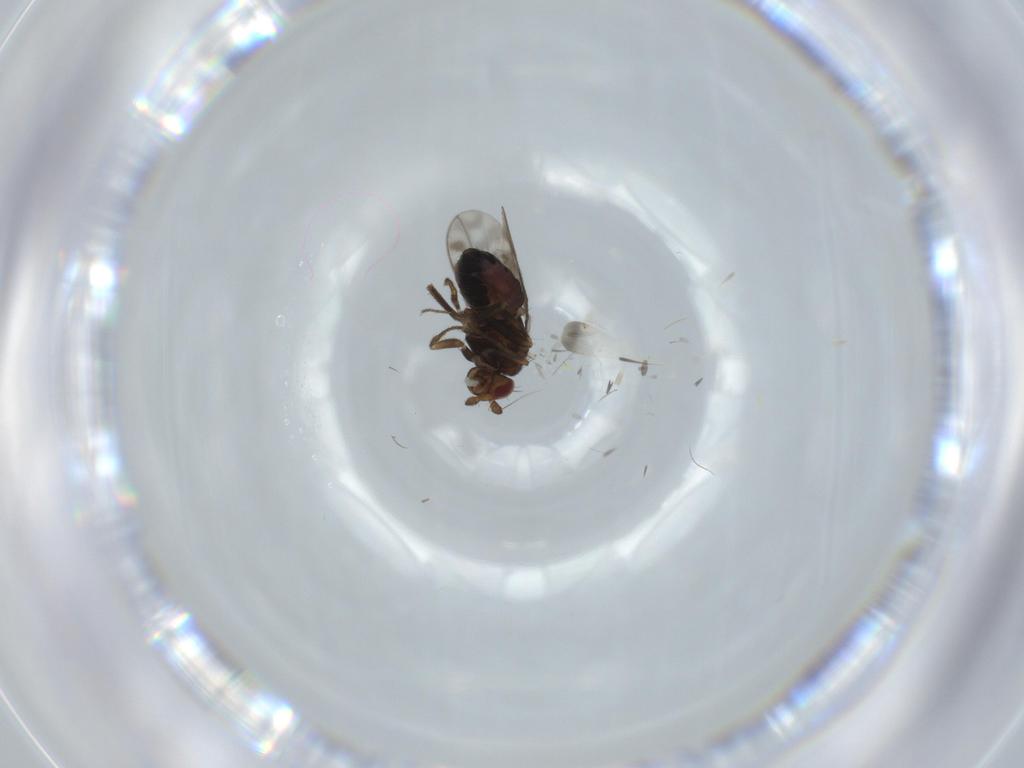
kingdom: Animalia
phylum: Arthropoda
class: Insecta
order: Diptera
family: Sphaeroceridae
